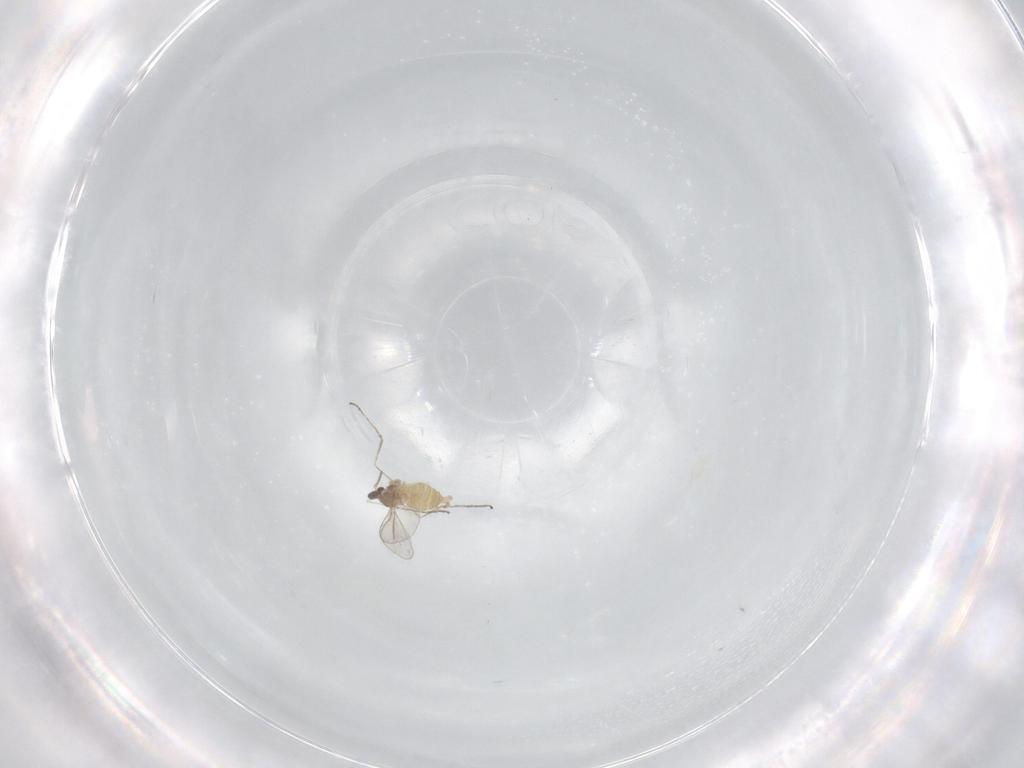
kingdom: Animalia
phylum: Arthropoda
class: Insecta
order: Diptera
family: Cecidomyiidae
